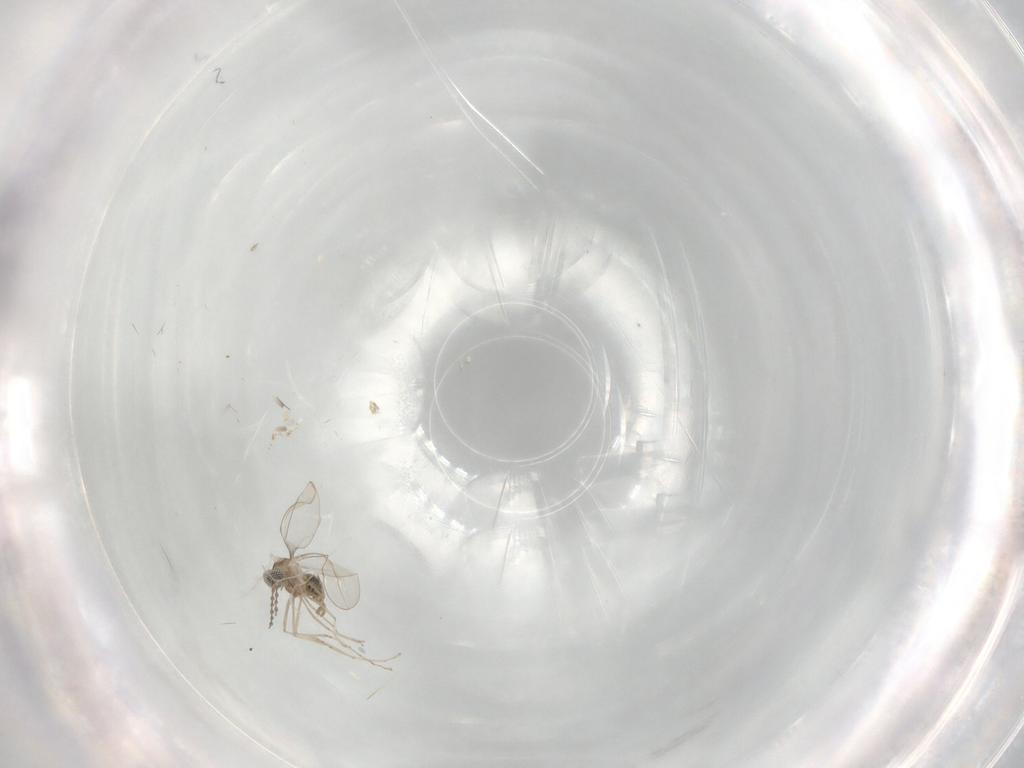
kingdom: Animalia
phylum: Arthropoda
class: Insecta
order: Diptera
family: Cecidomyiidae
